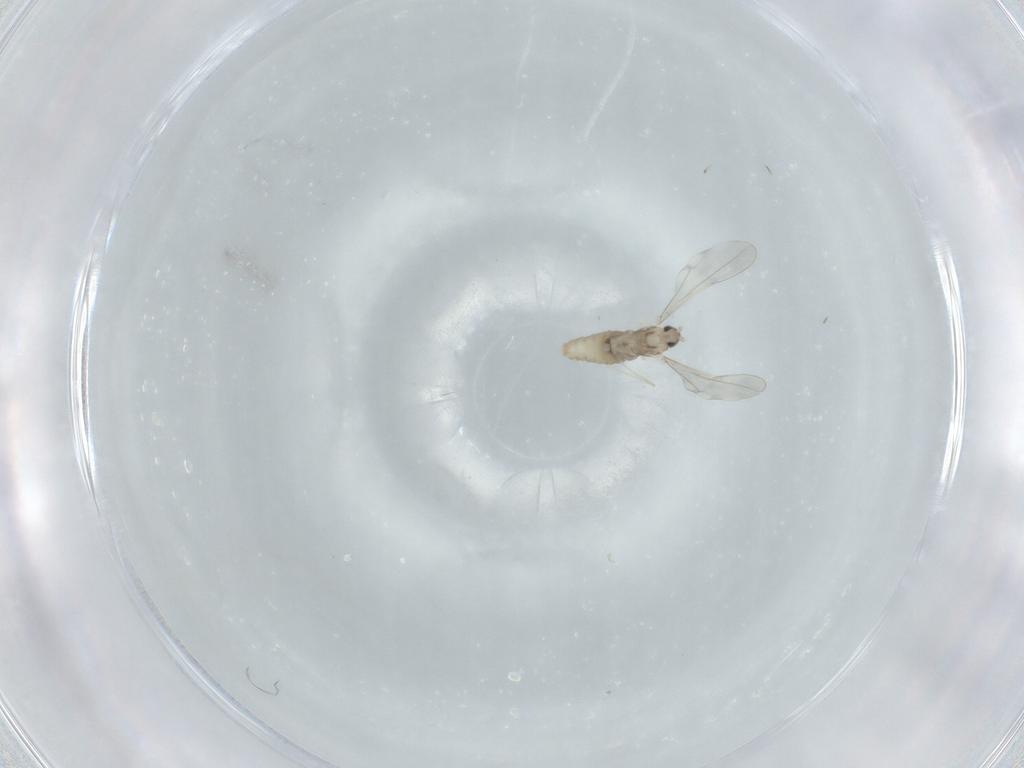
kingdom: Animalia
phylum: Arthropoda
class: Insecta
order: Diptera
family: Cecidomyiidae
